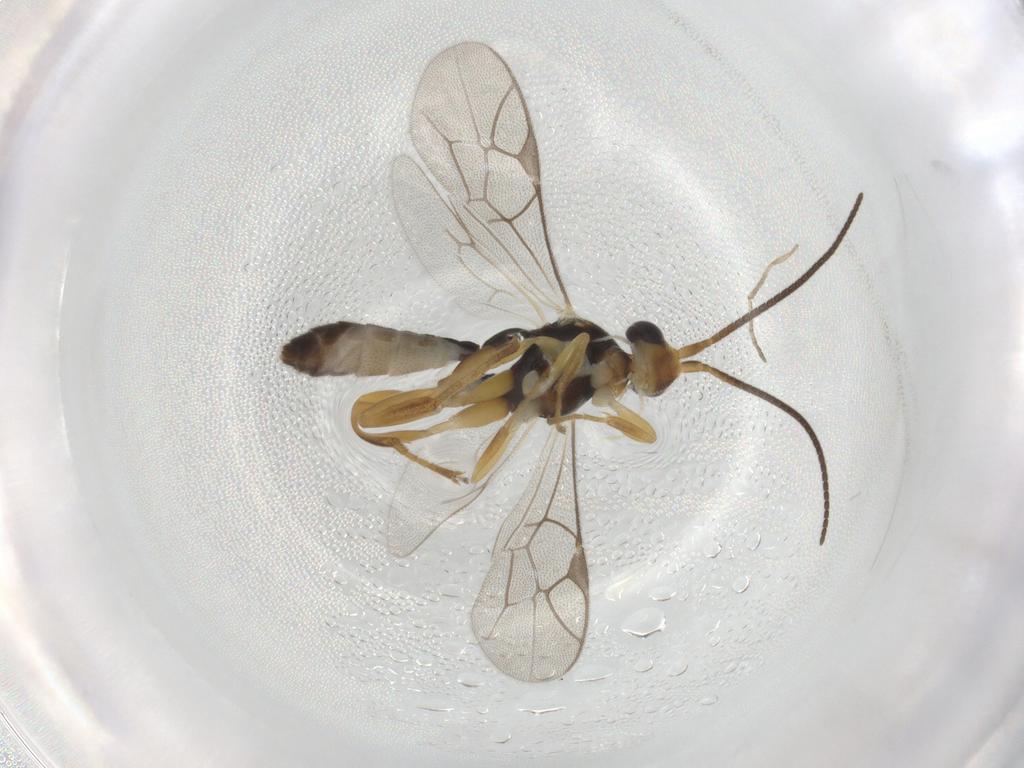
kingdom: Animalia
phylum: Arthropoda
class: Insecta
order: Hymenoptera
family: Ichneumonidae
